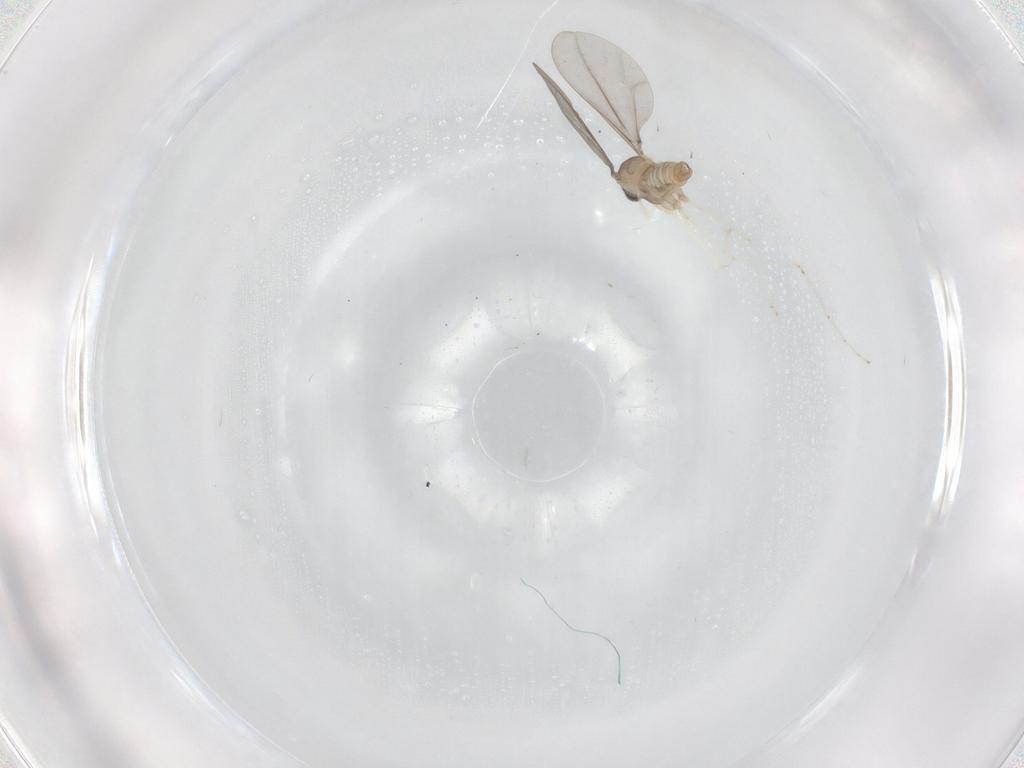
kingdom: Animalia
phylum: Arthropoda
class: Insecta
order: Diptera
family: Cecidomyiidae
